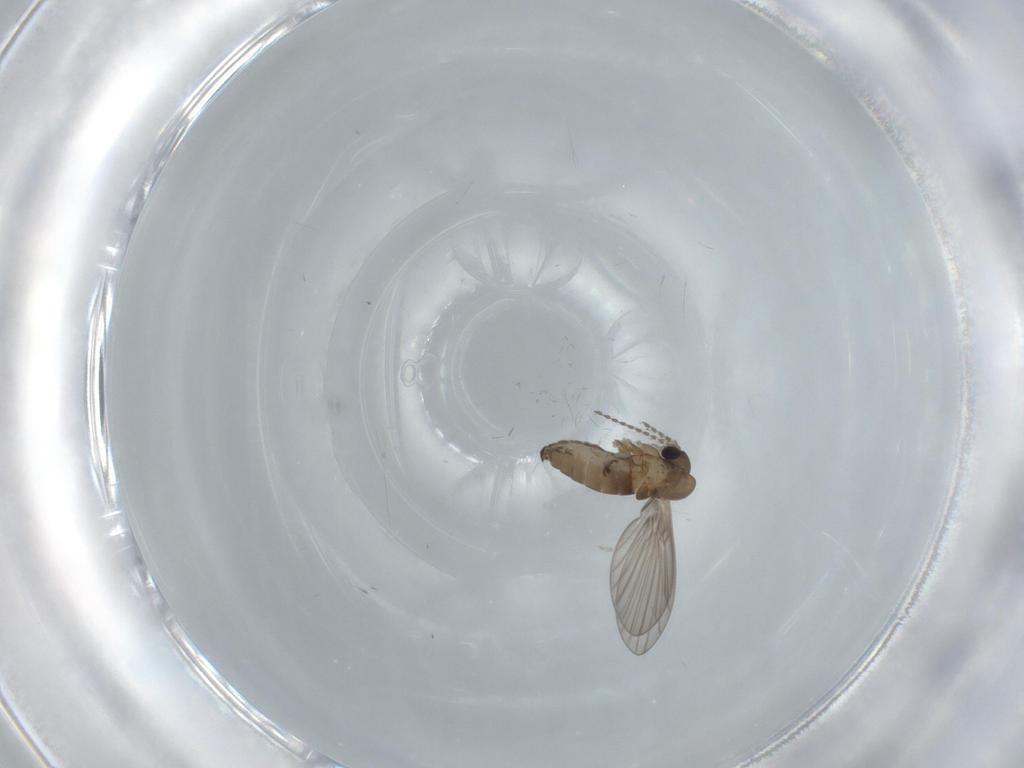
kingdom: Animalia
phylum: Arthropoda
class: Insecta
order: Diptera
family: Psychodidae
